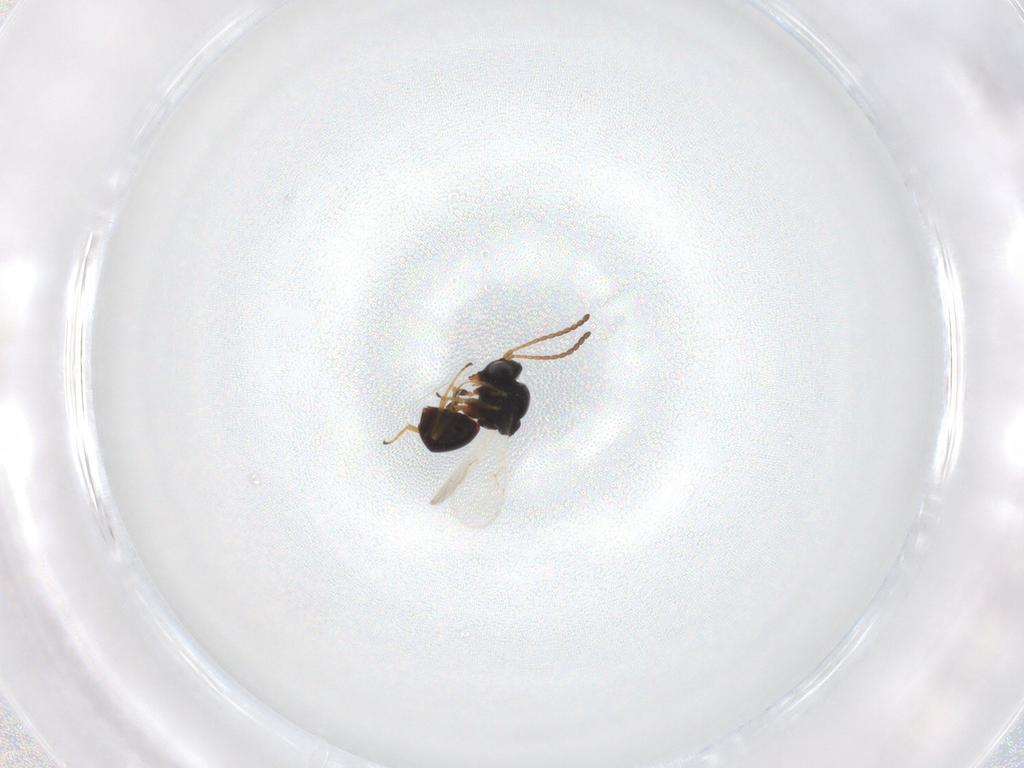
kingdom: Animalia
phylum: Arthropoda
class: Insecta
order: Hymenoptera
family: Figitidae
